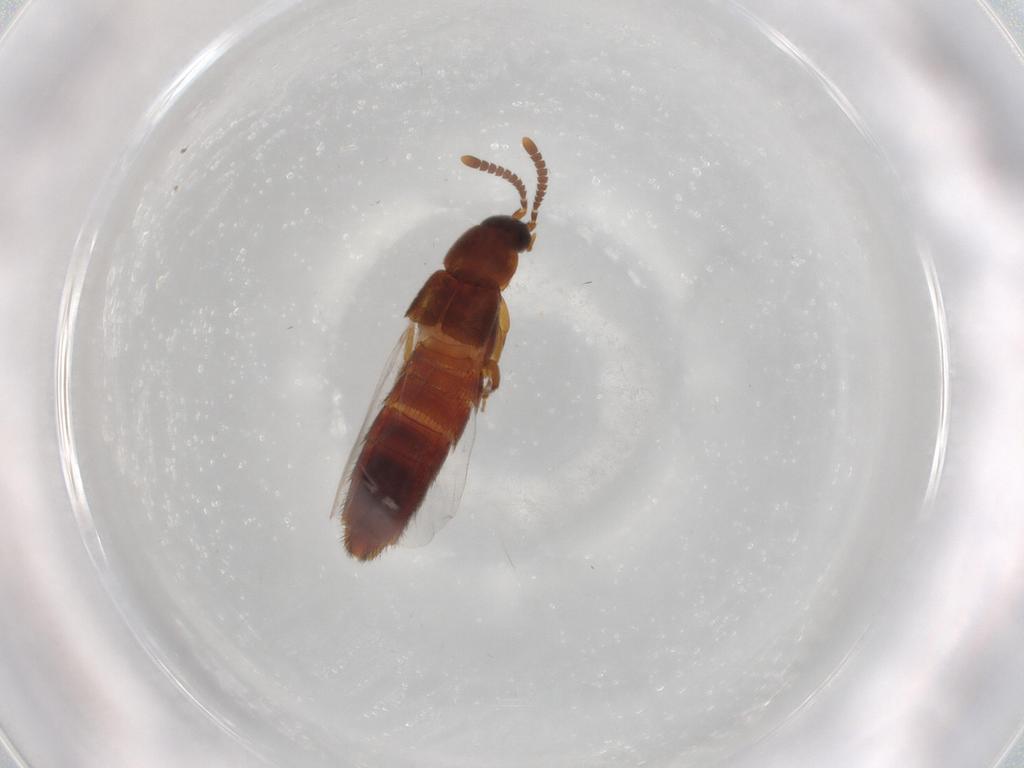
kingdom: Animalia
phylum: Arthropoda
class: Insecta
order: Coleoptera
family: Staphylinidae
